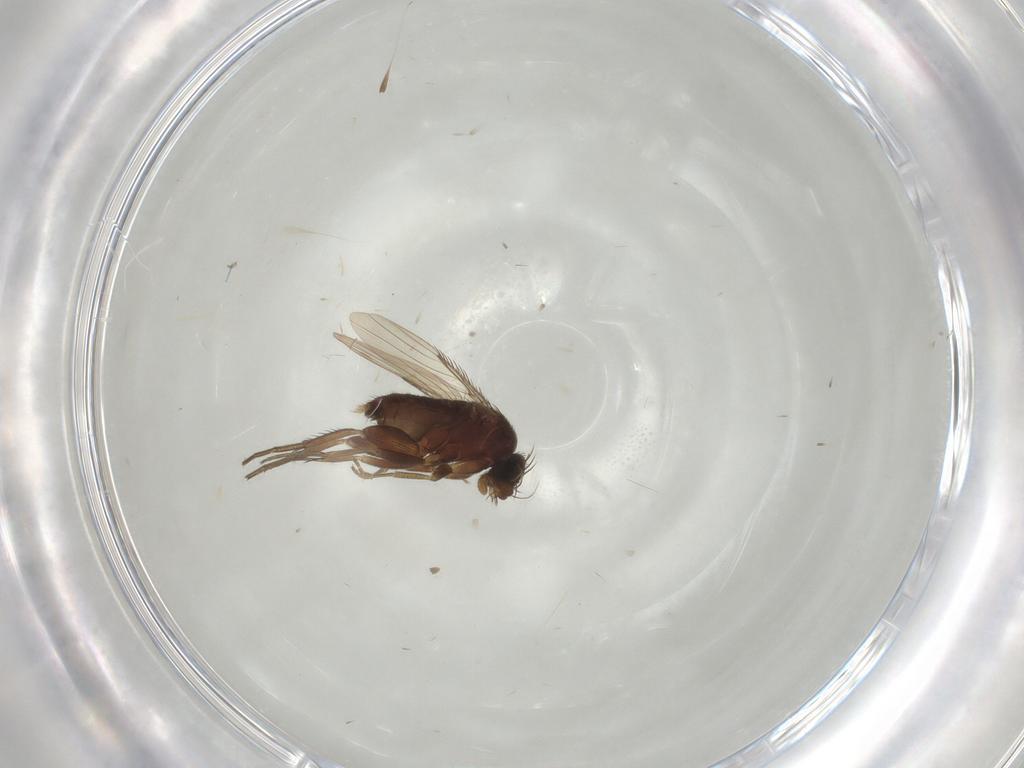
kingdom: Animalia
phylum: Arthropoda
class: Insecta
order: Diptera
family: Phoridae
